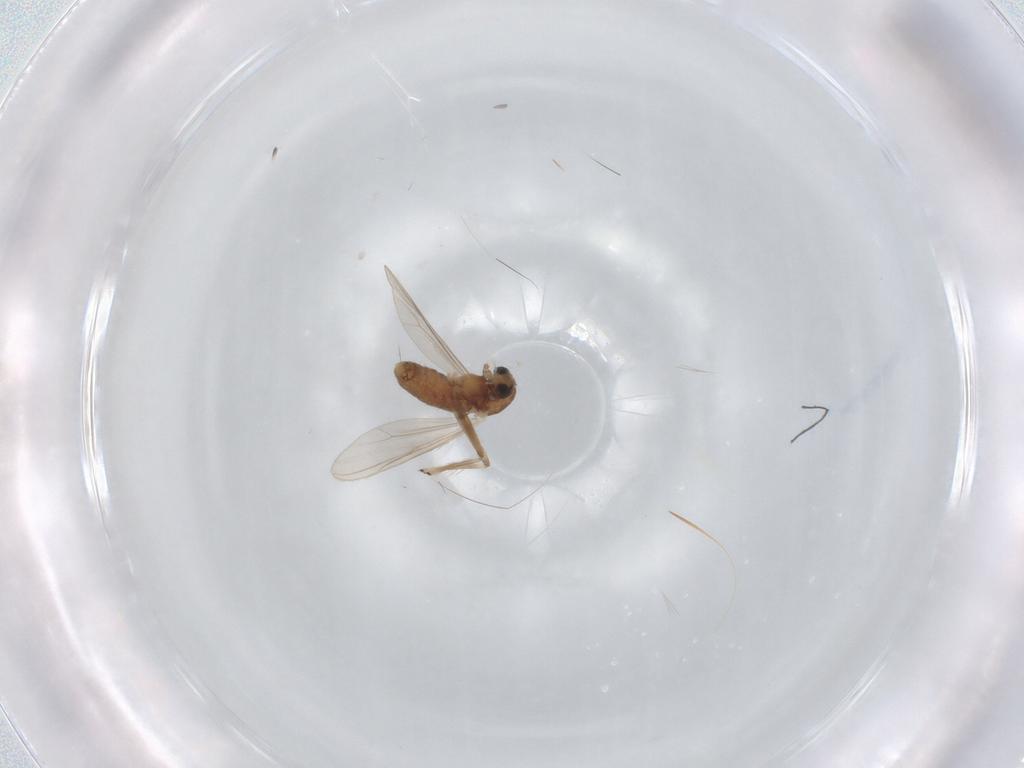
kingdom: Animalia
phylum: Arthropoda
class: Insecta
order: Diptera
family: Chironomidae
